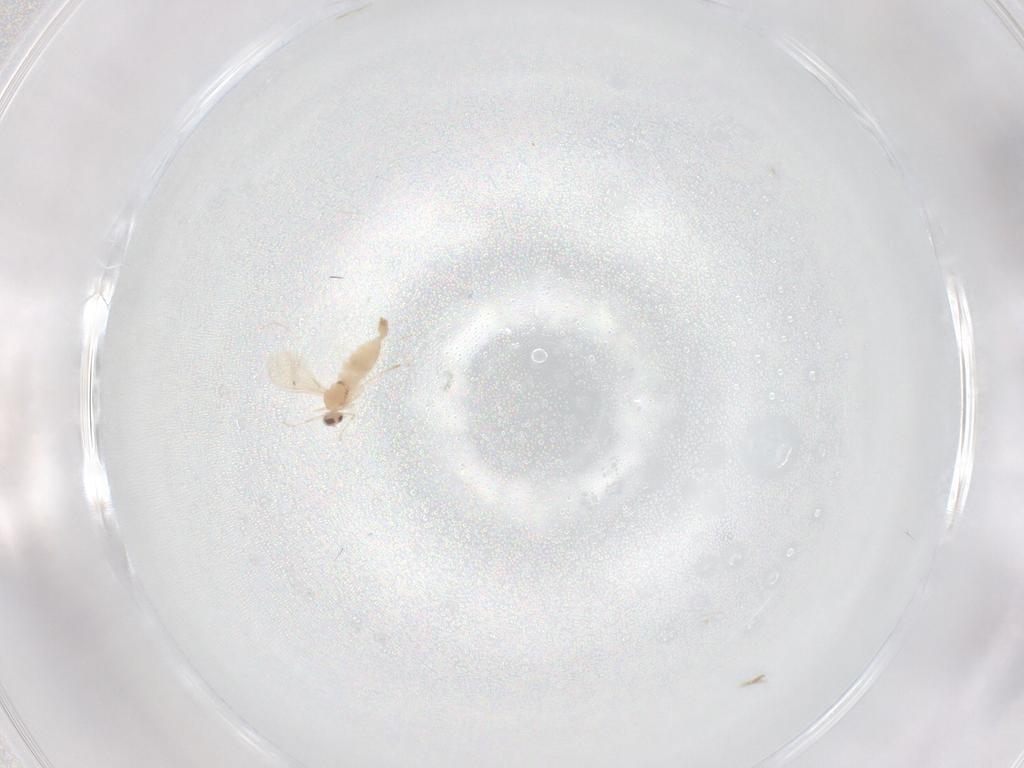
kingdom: Animalia
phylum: Arthropoda
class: Insecta
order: Diptera
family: Cecidomyiidae
